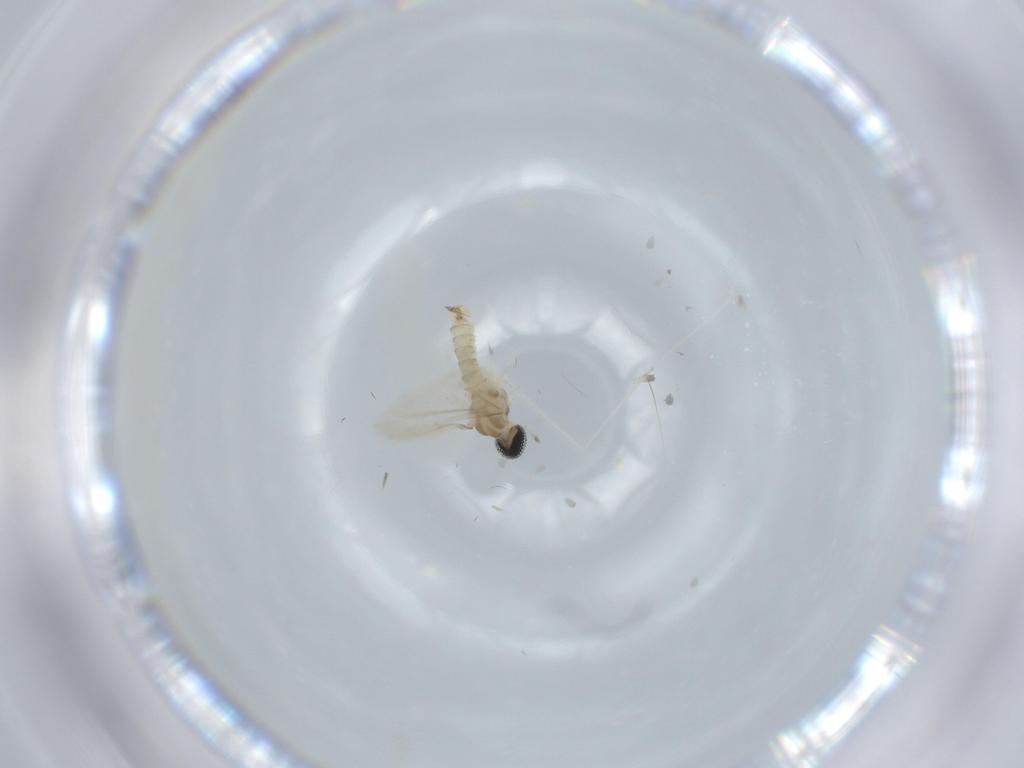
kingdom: Animalia
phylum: Arthropoda
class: Insecta
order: Diptera
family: Cecidomyiidae
